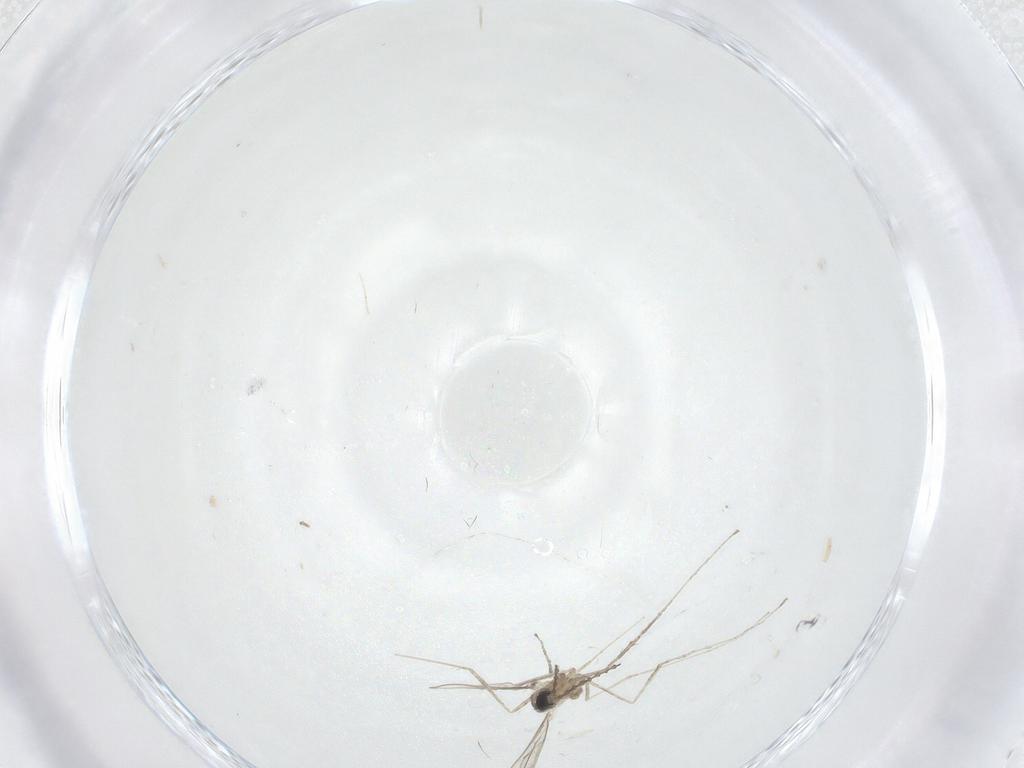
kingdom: Animalia
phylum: Arthropoda
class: Insecta
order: Diptera
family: Cecidomyiidae
